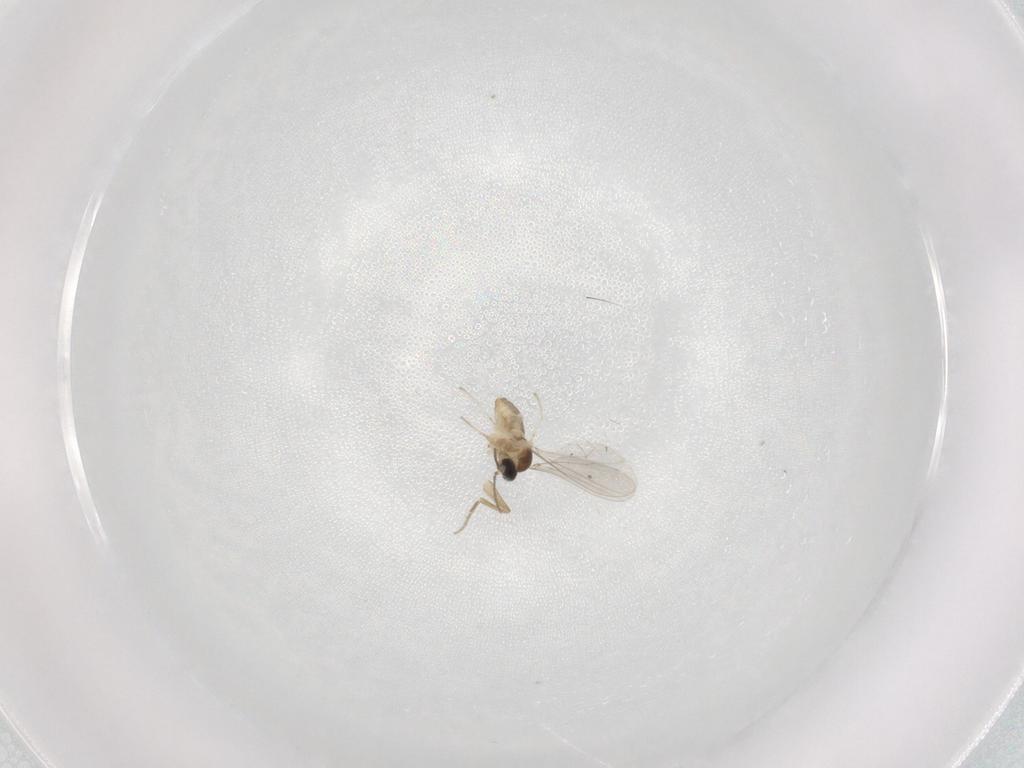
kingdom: Animalia
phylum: Arthropoda
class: Insecta
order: Diptera
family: Cecidomyiidae
